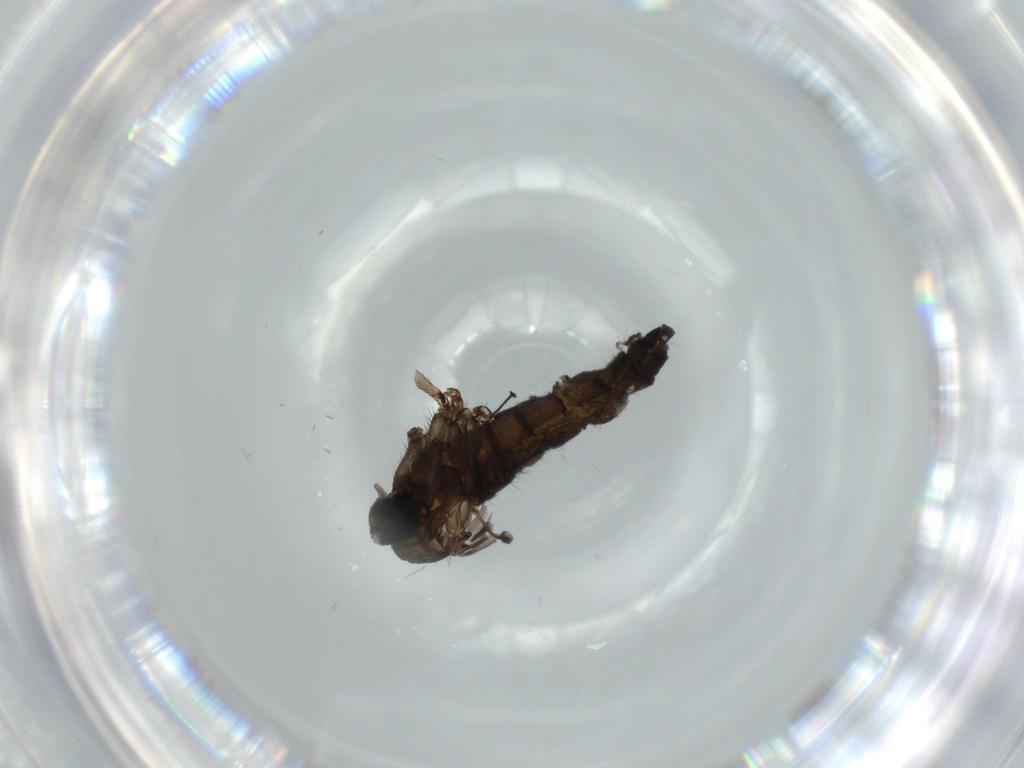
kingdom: Animalia
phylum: Arthropoda
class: Insecta
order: Diptera
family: Sciaridae
